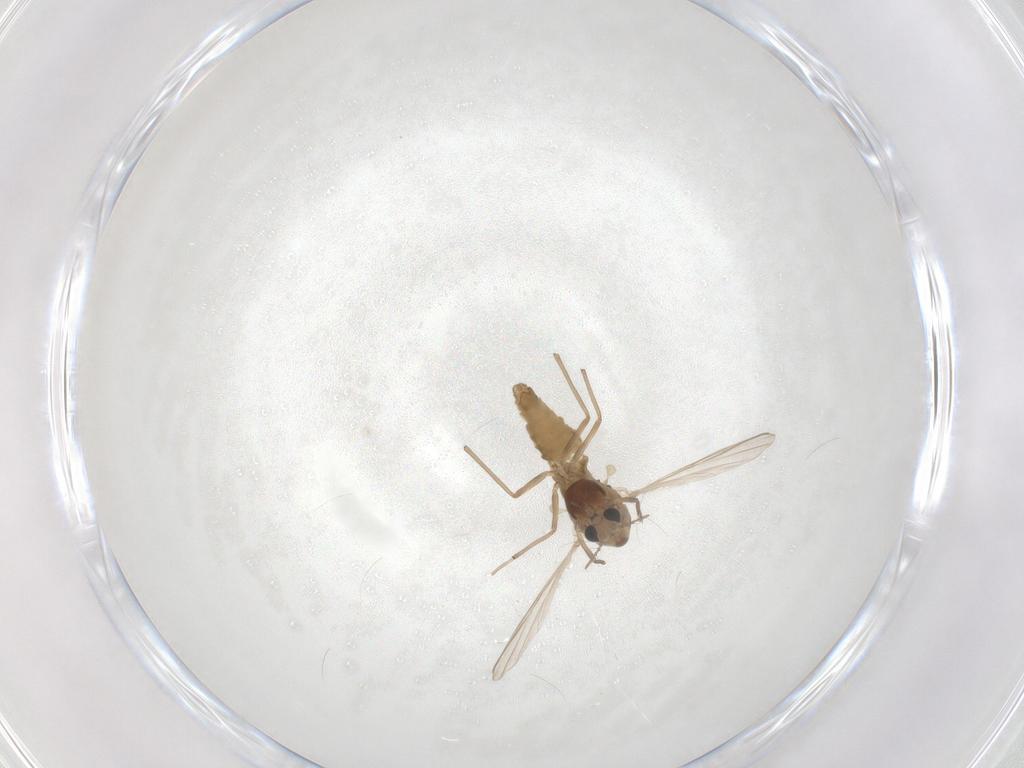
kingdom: Animalia
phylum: Arthropoda
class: Insecta
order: Diptera
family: Chironomidae
